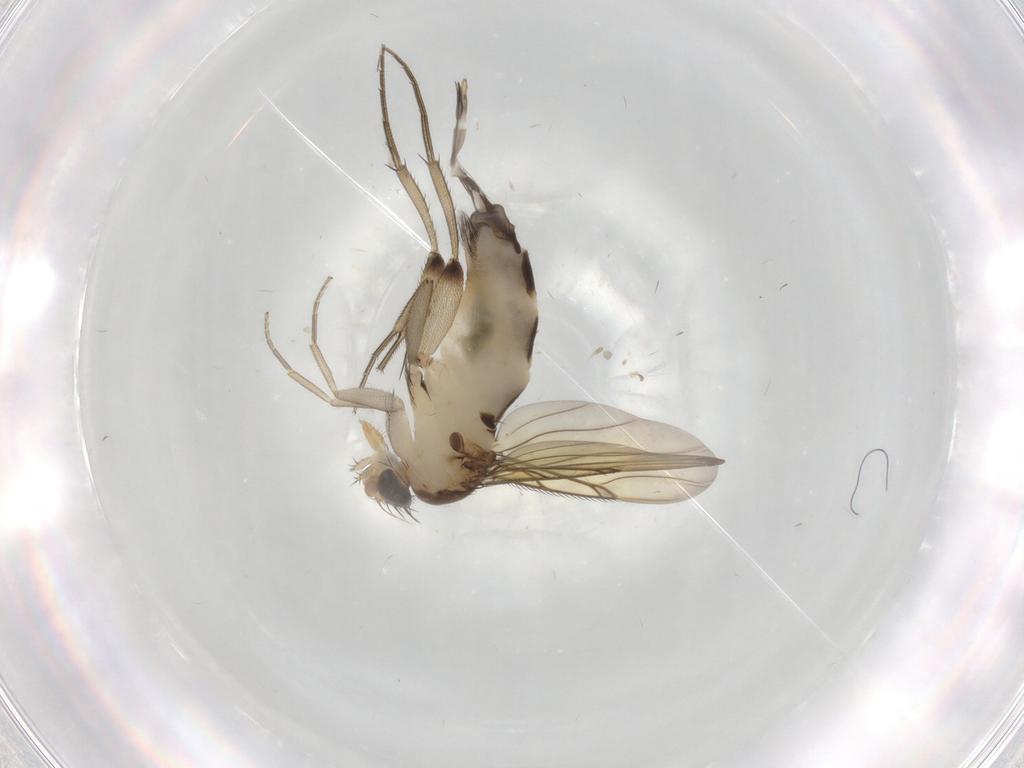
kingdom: Animalia
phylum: Arthropoda
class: Insecta
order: Diptera
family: Phoridae
